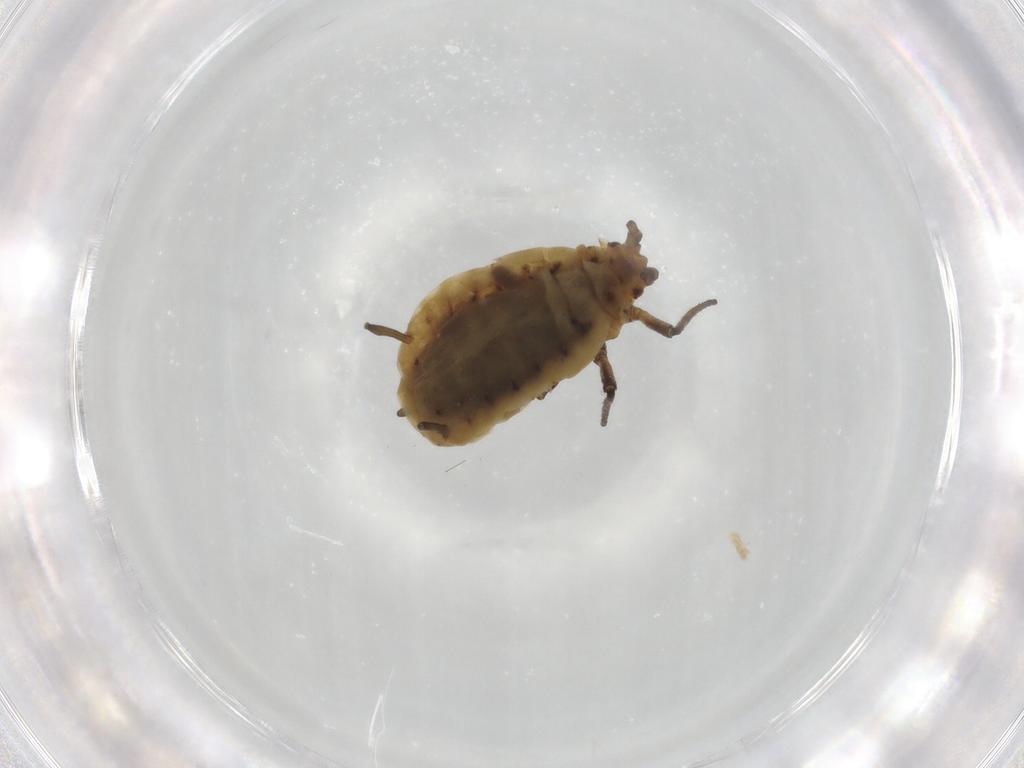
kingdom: Animalia
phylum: Arthropoda
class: Insecta
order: Hemiptera
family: Aphididae
